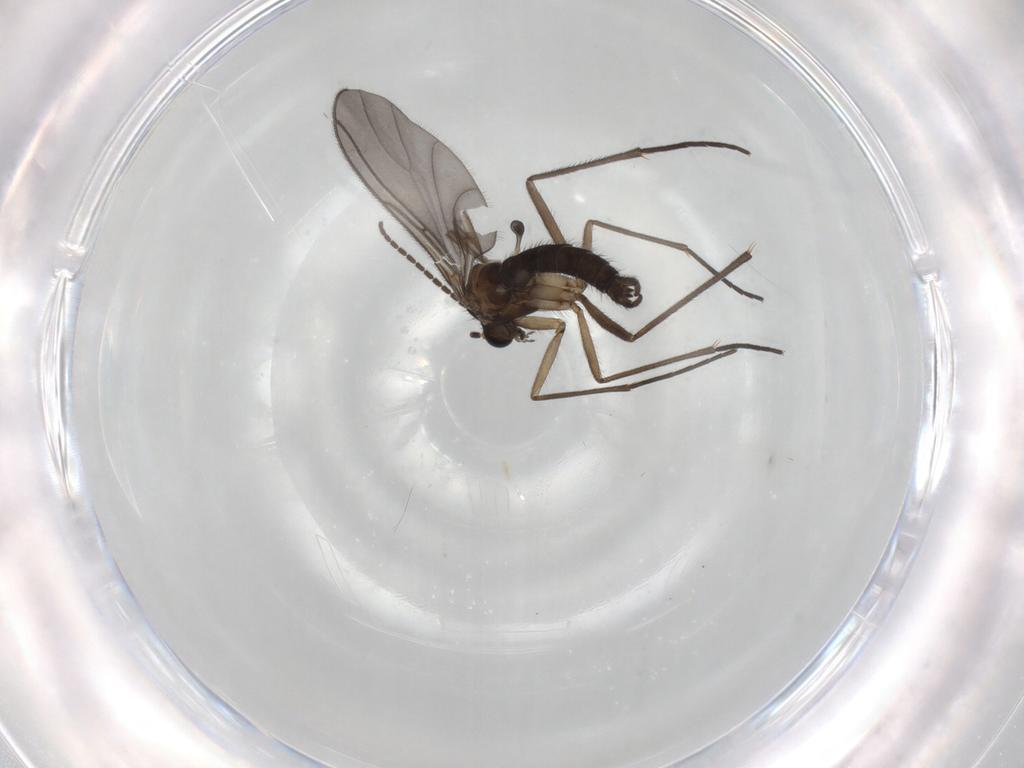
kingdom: Animalia
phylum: Arthropoda
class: Insecta
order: Diptera
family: Sciaridae
